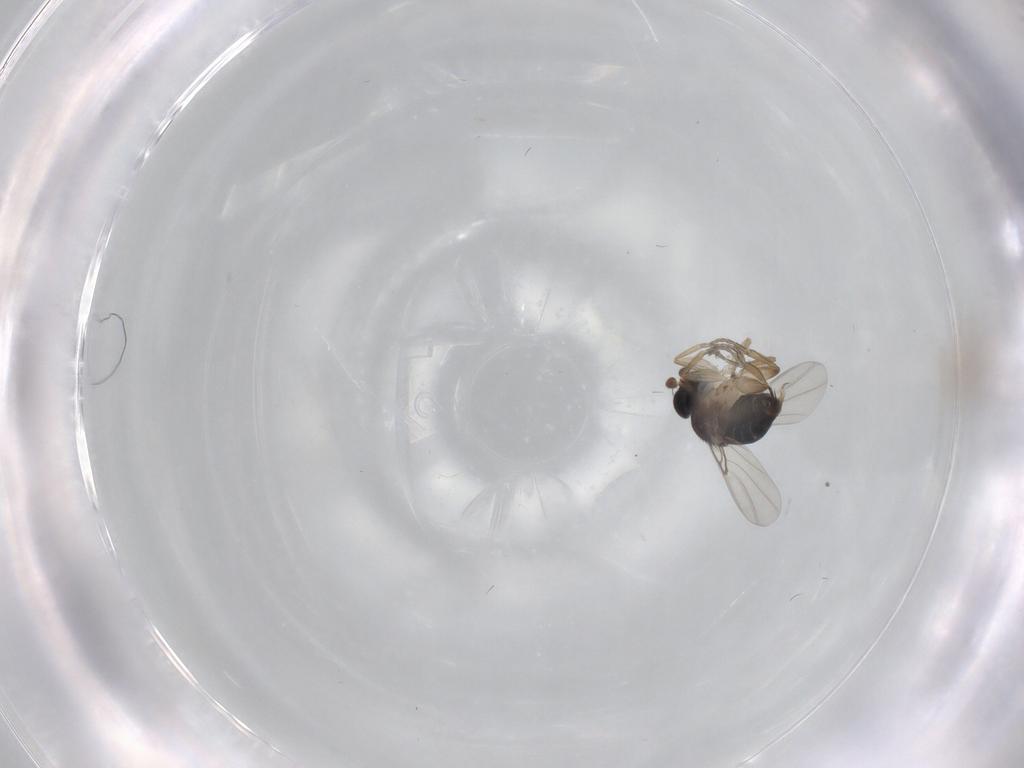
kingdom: Animalia
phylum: Arthropoda
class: Insecta
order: Diptera
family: Phoridae
